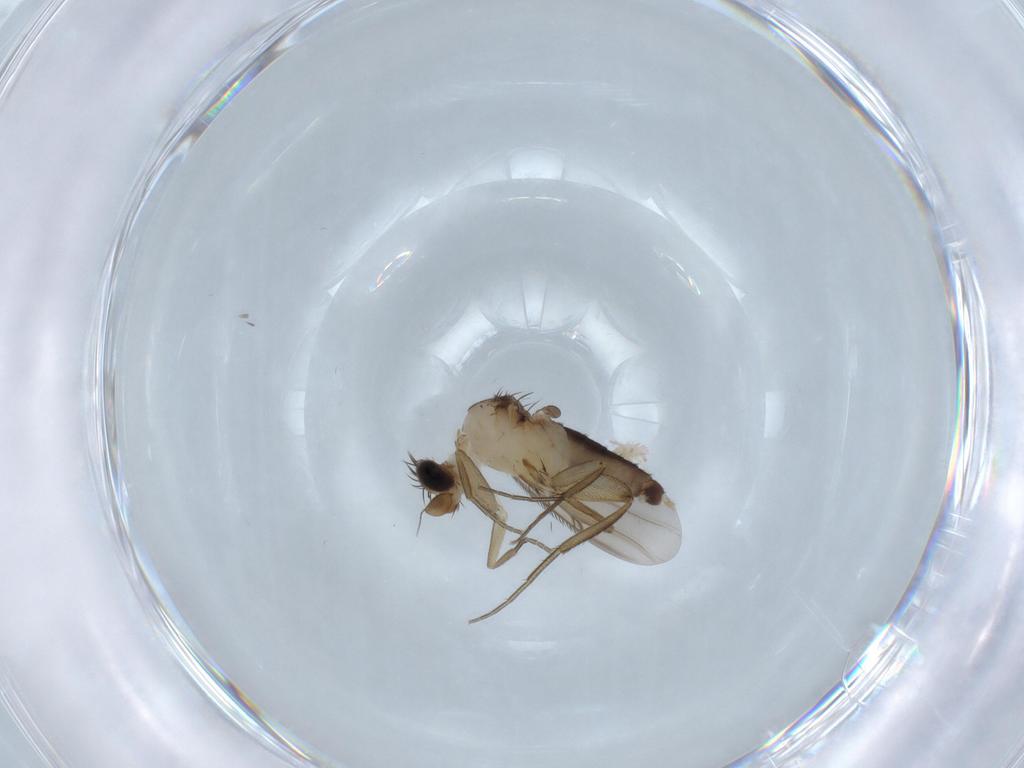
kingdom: Animalia
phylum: Arthropoda
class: Insecta
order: Diptera
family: Phoridae
